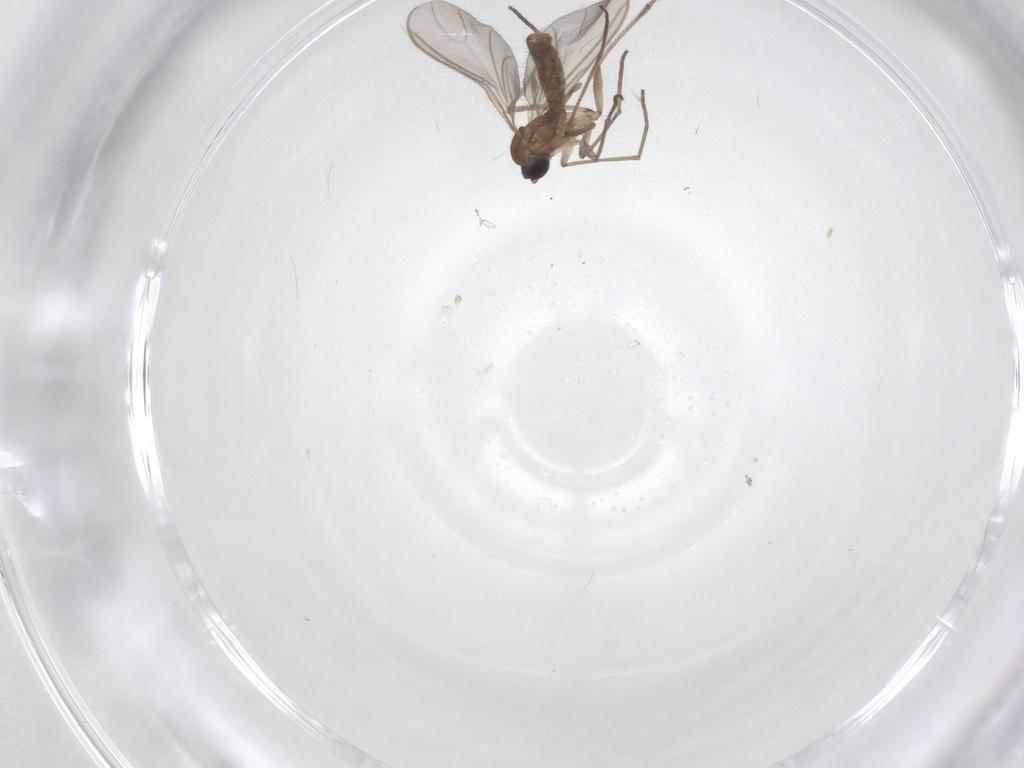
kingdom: Animalia
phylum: Arthropoda
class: Insecta
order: Diptera
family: Sciaridae
